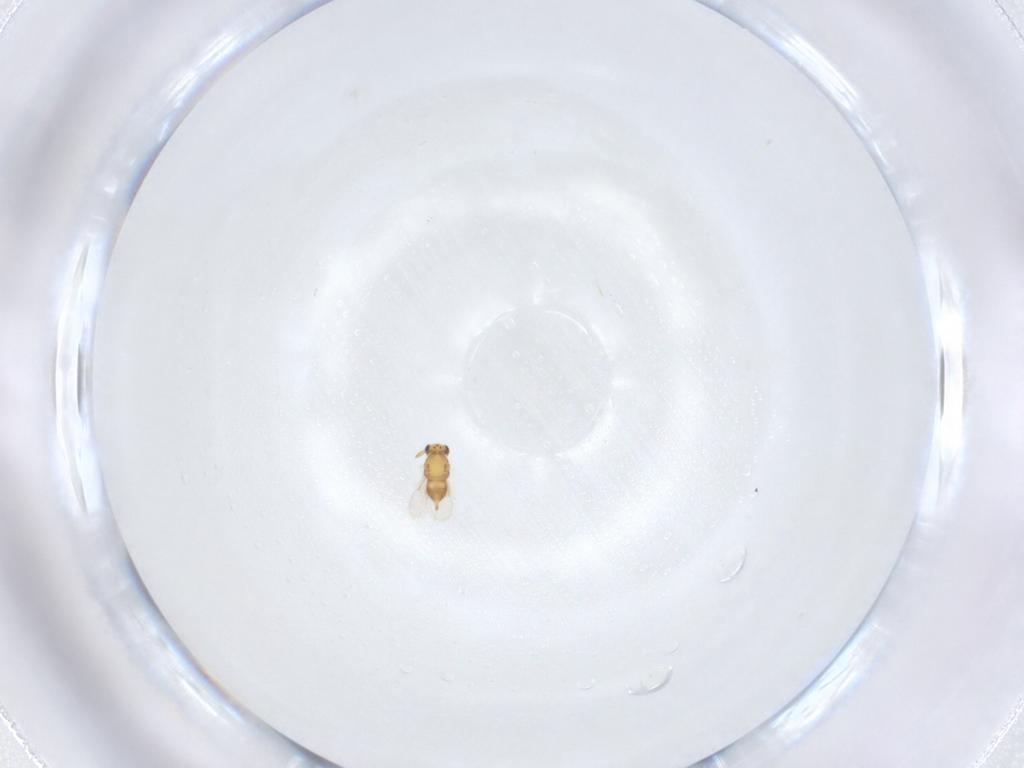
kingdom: Animalia
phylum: Arthropoda
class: Insecta
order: Hymenoptera
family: Aphelinidae
